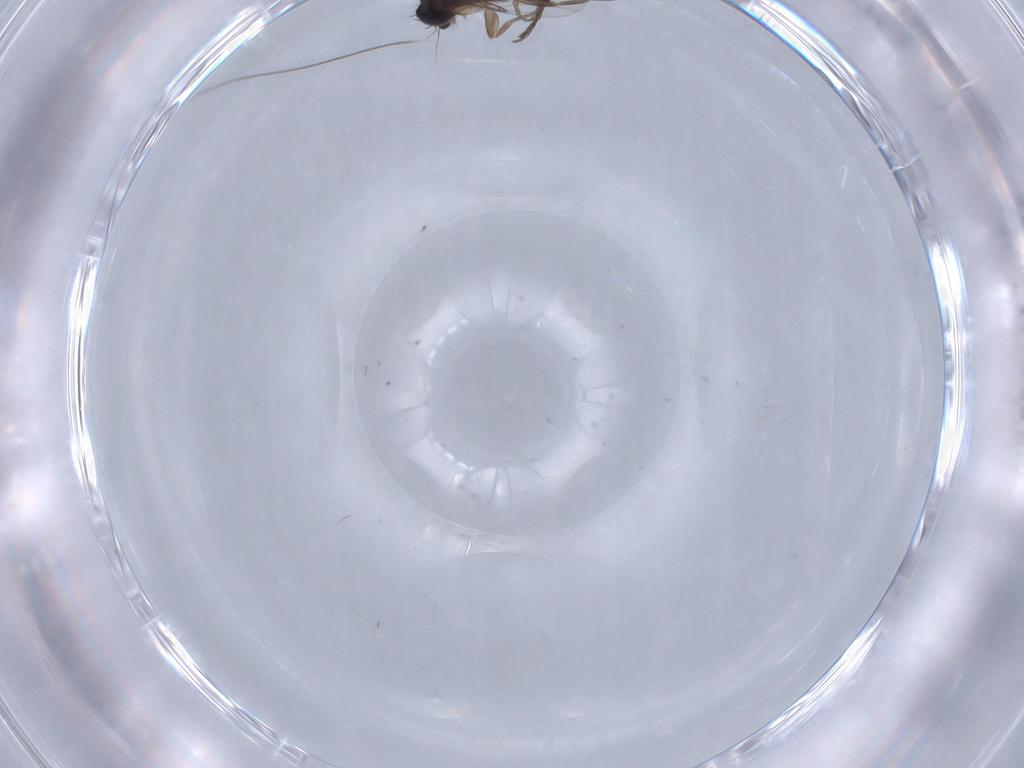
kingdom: Animalia
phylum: Arthropoda
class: Insecta
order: Diptera
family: Phoridae
